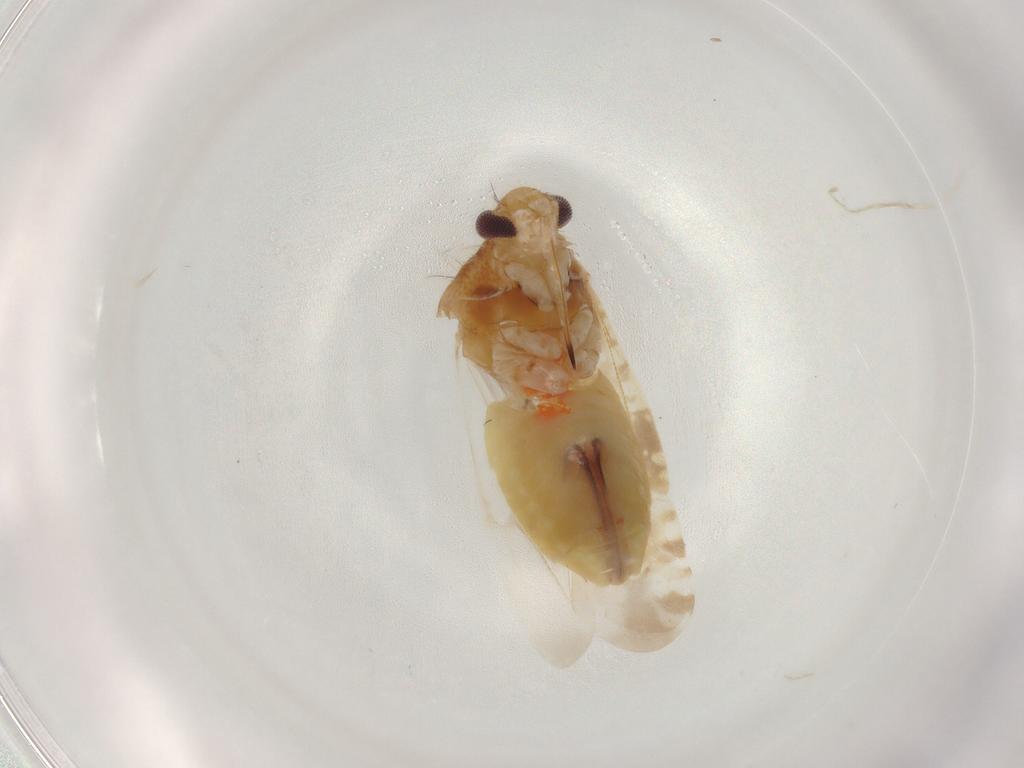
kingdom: Animalia
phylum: Arthropoda
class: Insecta
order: Hemiptera
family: Miridae
